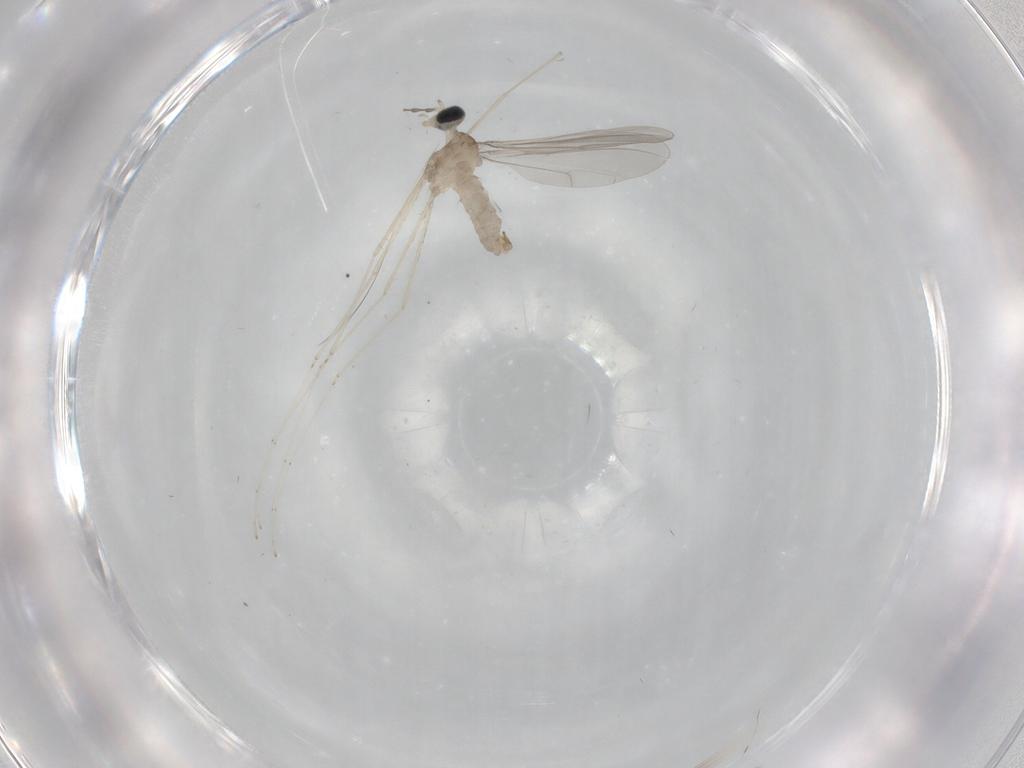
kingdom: Animalia
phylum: Arthropoda
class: Insecta
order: Diptera
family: Cecidomyiidae
